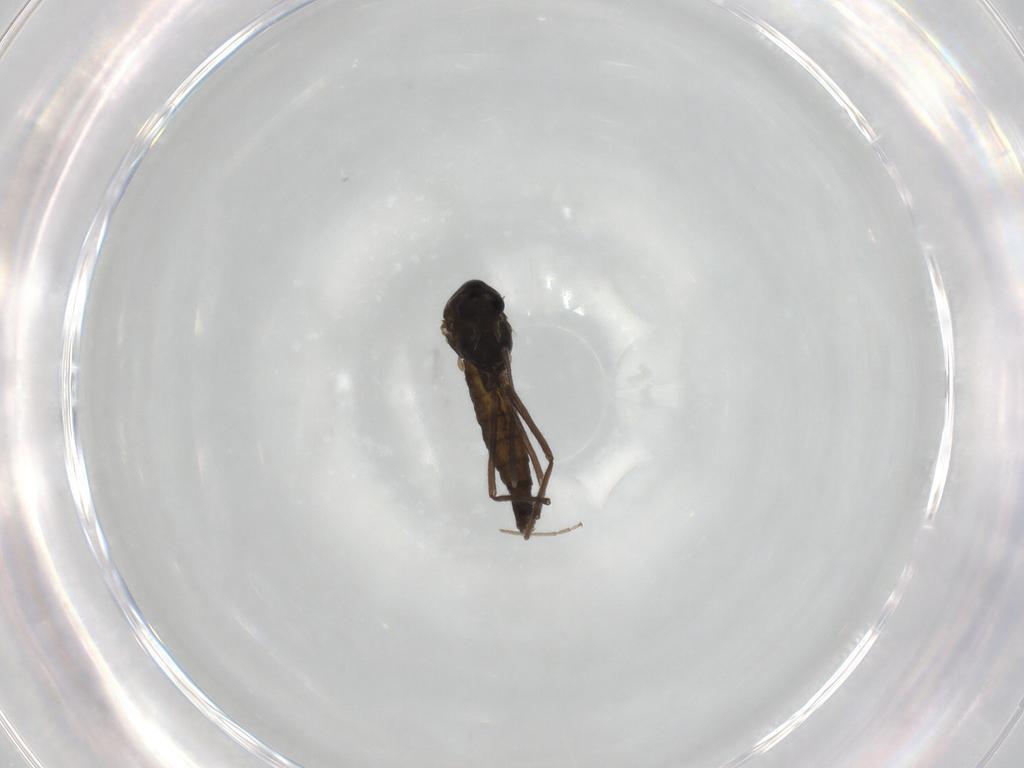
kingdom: Animalia
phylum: Arthropoda
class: Insecta
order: Diptera
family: Chironomidae
